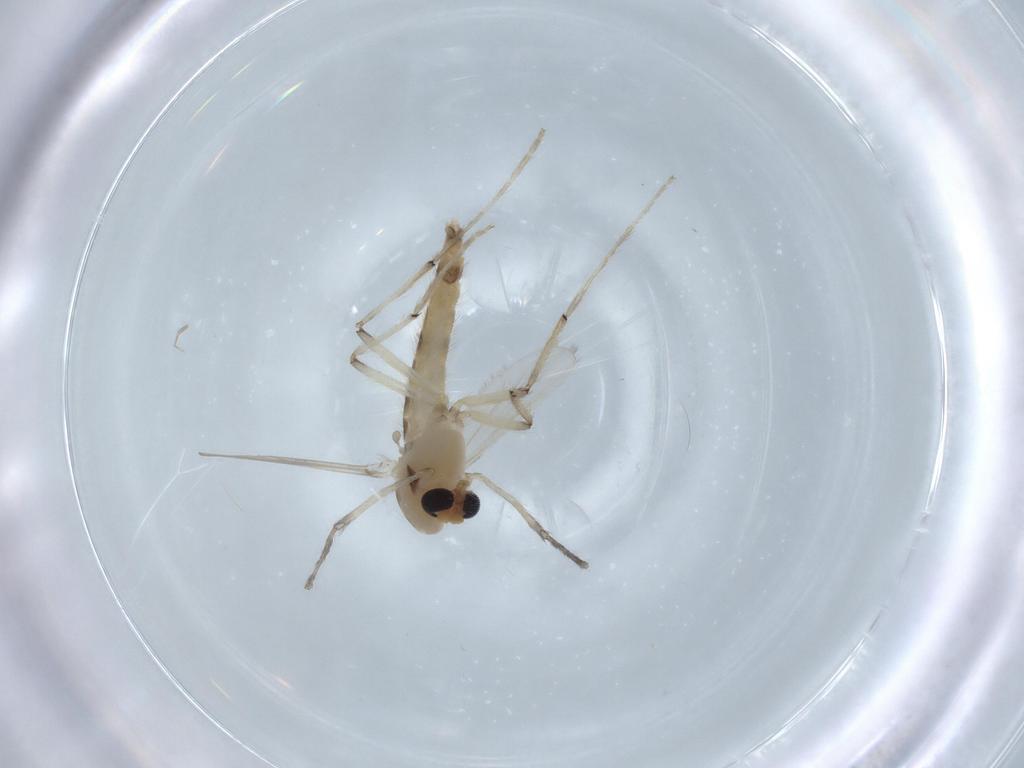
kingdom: Animalia
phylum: Arthropoda
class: Insecta
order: Diptera
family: Chironomidae
